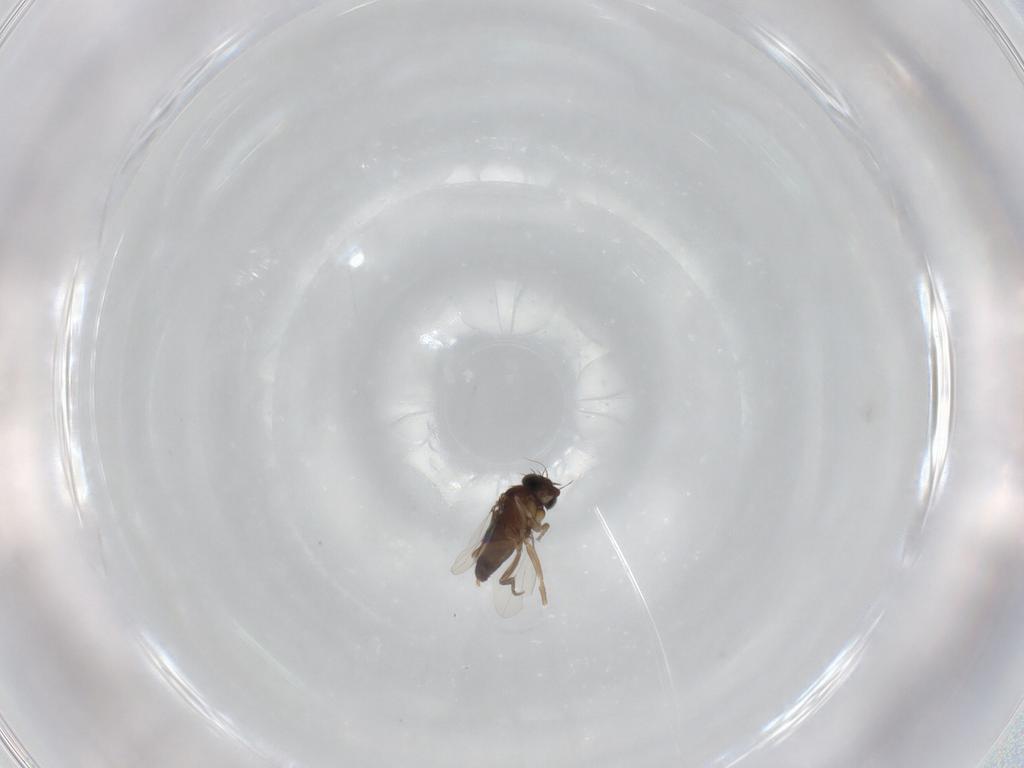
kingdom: Animalia
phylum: Arthropoda
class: Insecta
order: Diptera
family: Phoridae
